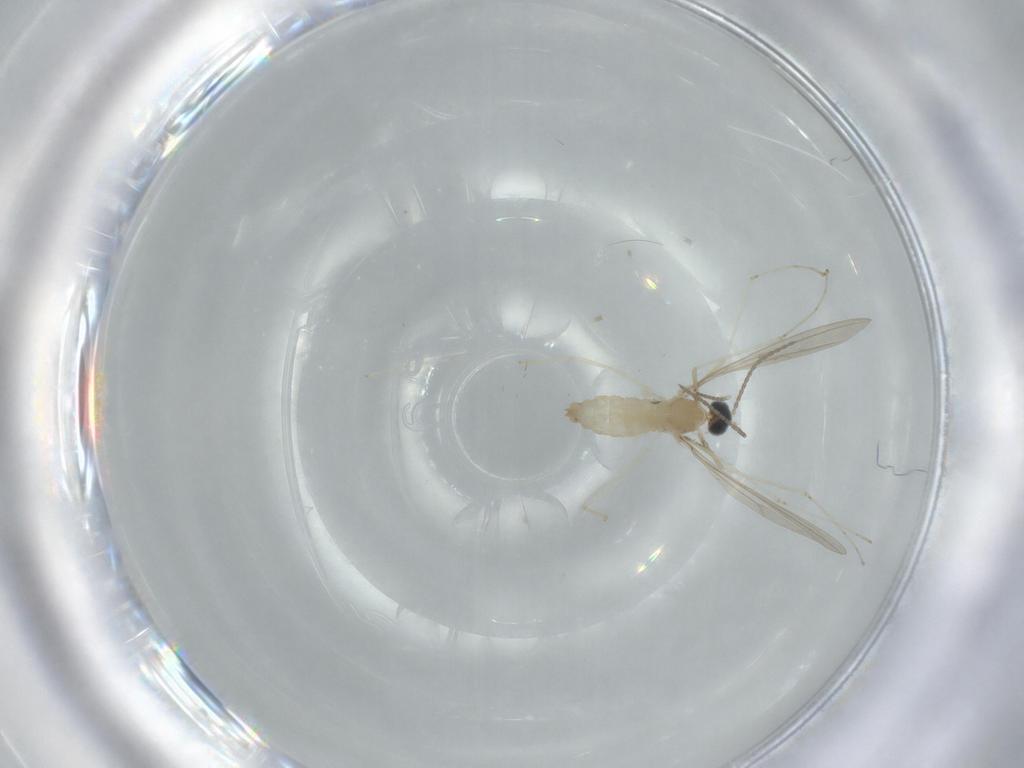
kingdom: Animalia
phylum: Arthropoda
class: Insecta
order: Diptera
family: Cecidomyiidae
